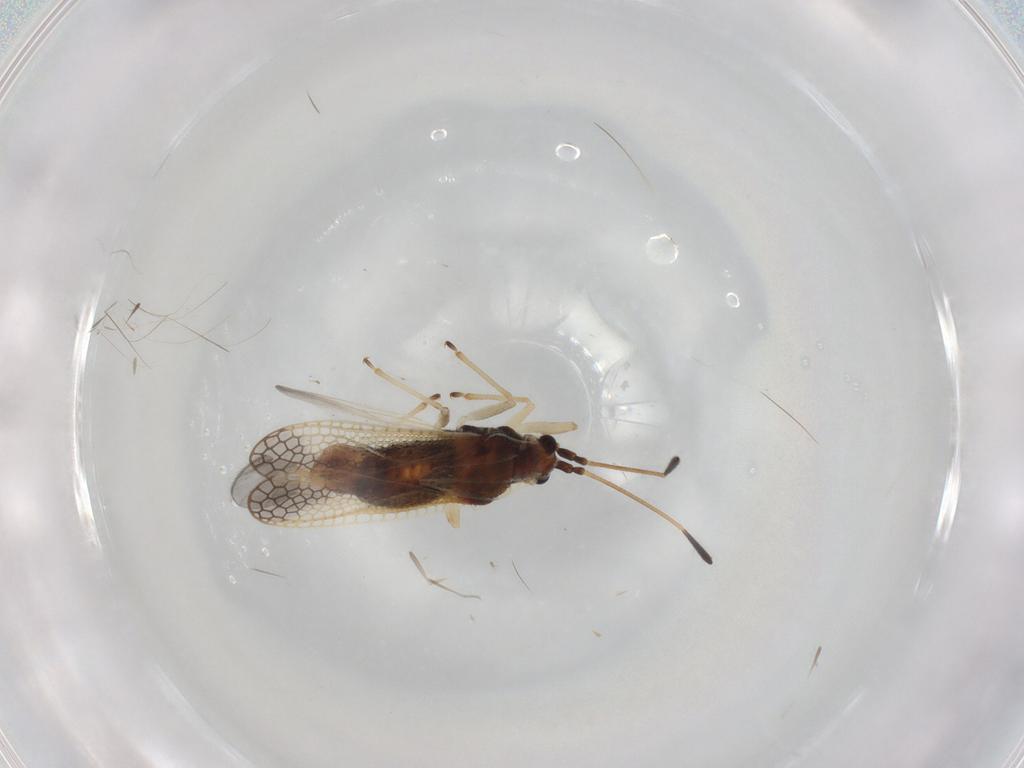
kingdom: Animalia
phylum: Arthropoda
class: Insecta
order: Hemiptera
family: Tingidae
